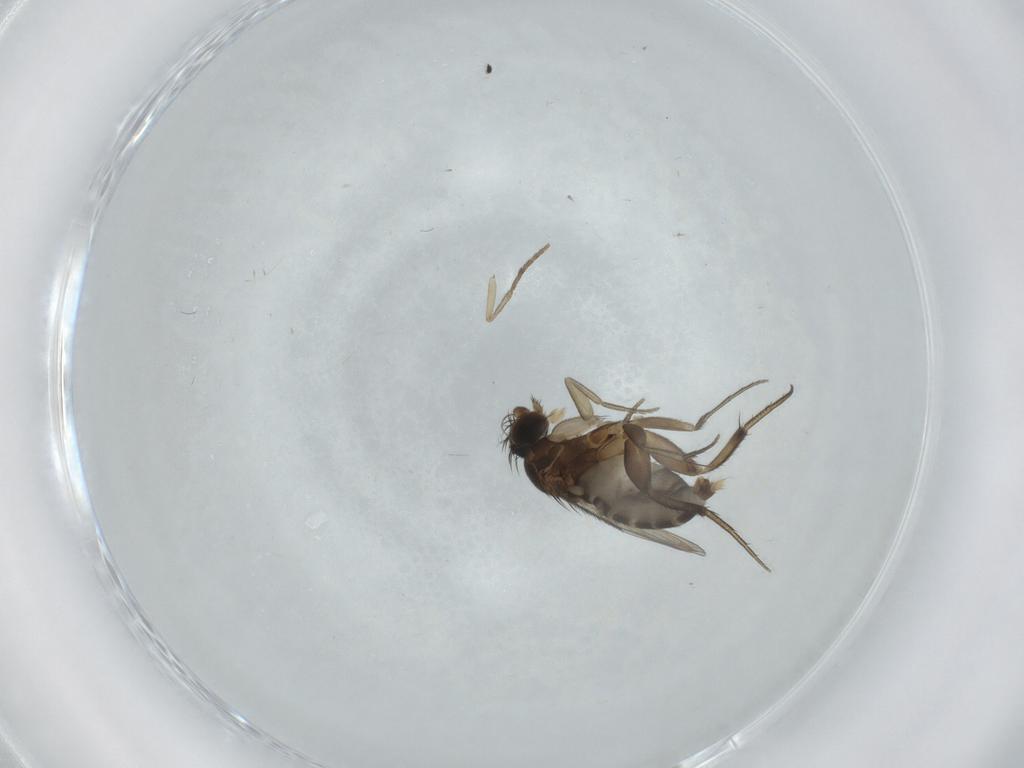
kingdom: Animalia
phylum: Arthropoda
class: Insecta
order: Diptera
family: Phoridae
